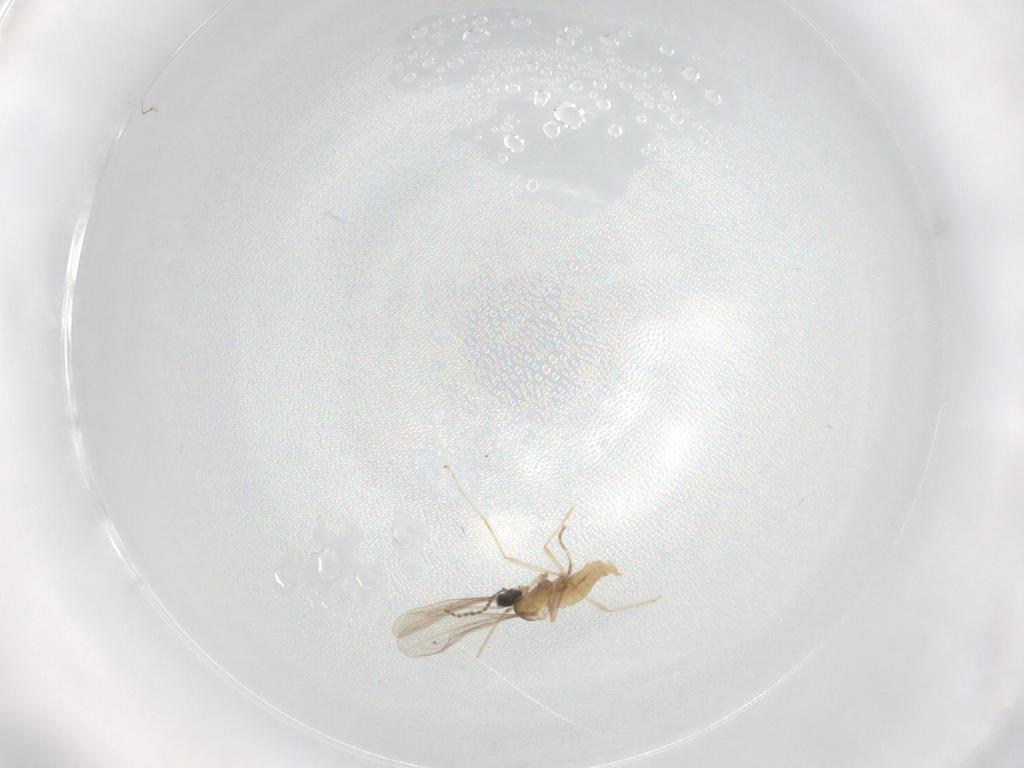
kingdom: Animalia
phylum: Arthropoda
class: Insecta
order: Diptera
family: Cecidomyiidae
